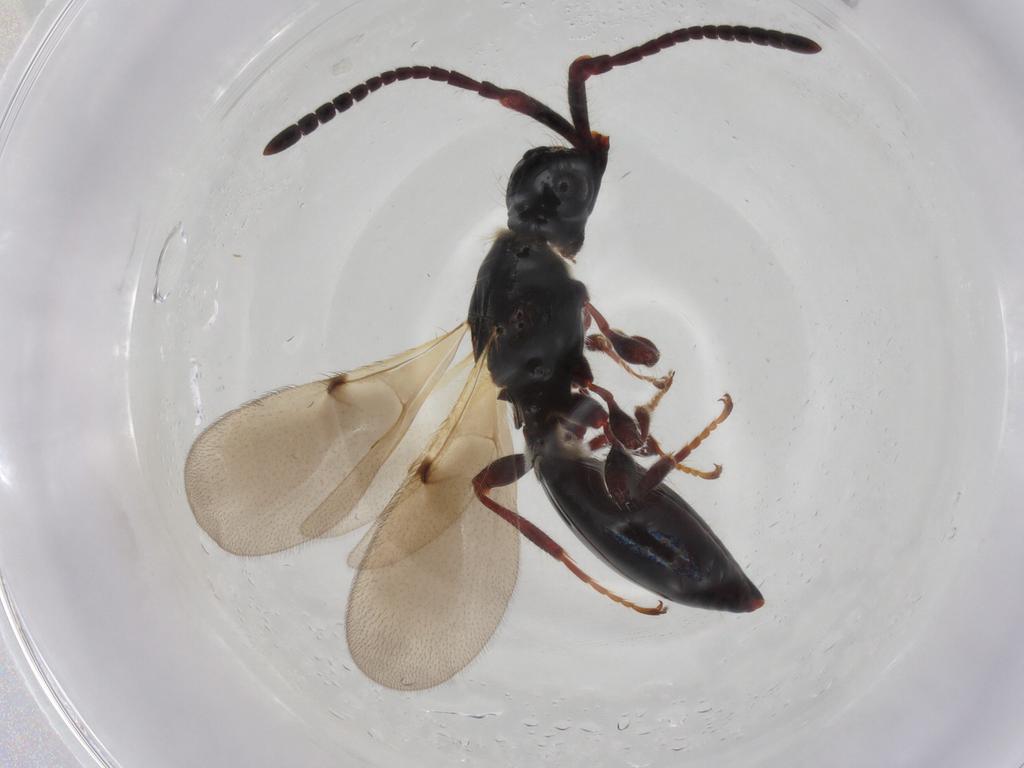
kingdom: Animalia
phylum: Arthropoda
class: Insecta
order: Hymenoptera
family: Diapriidae
